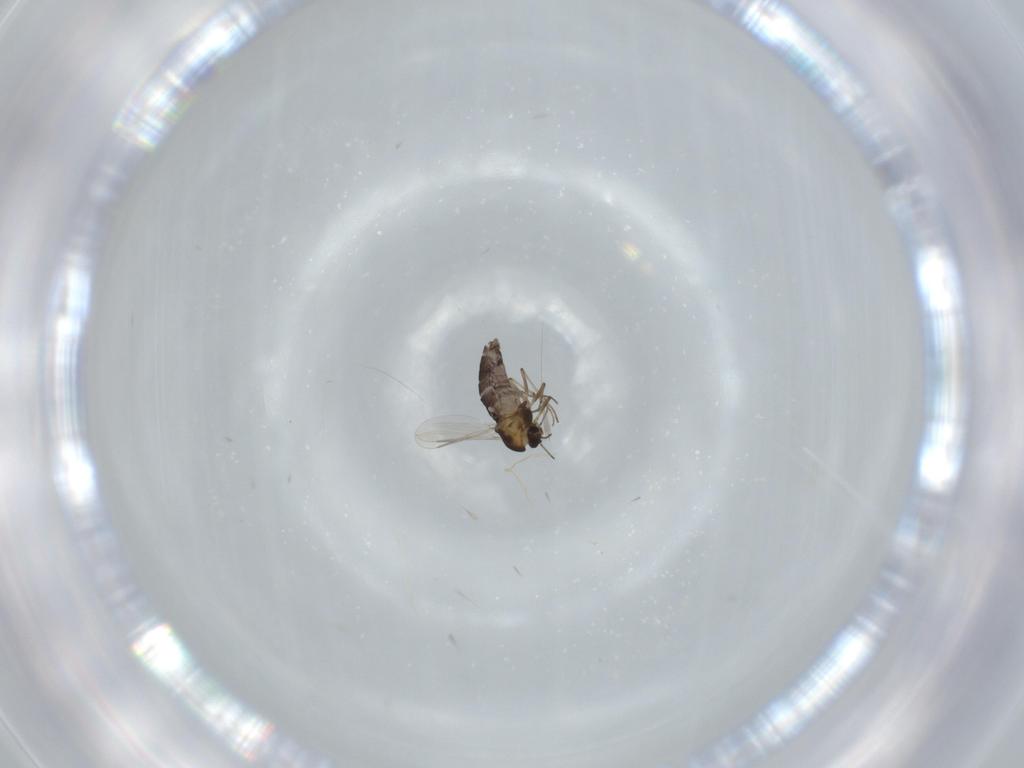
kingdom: Animalia
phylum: Arthropoda
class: Insecta
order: Diptera
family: Chironomidae
